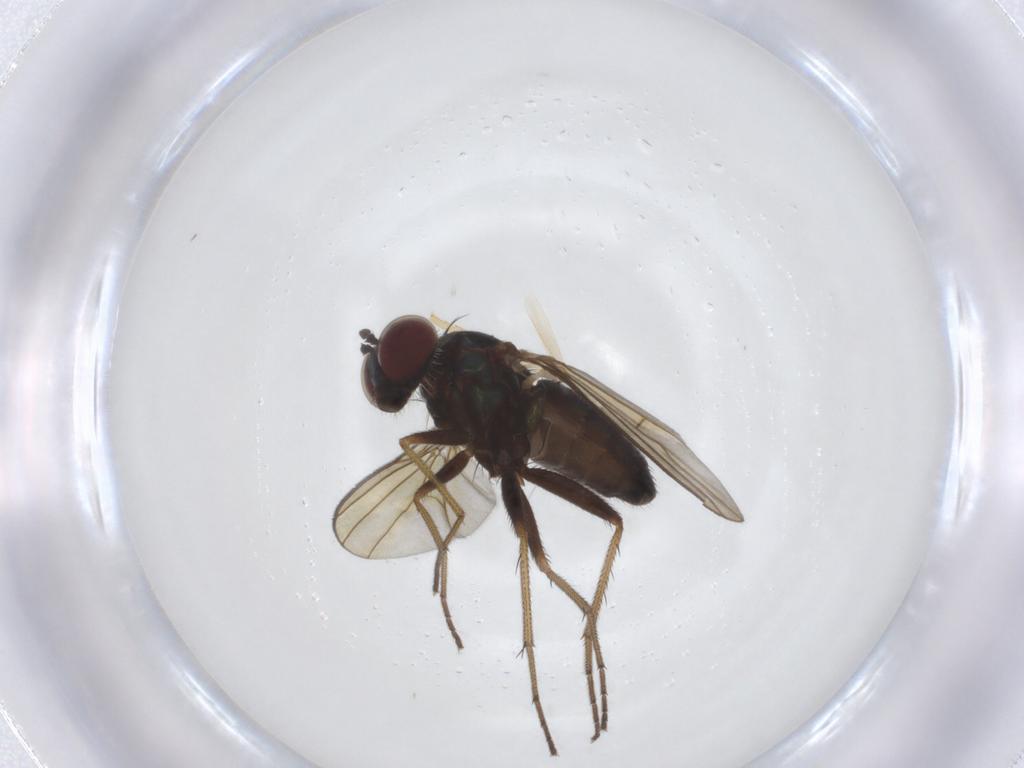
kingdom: Animalia
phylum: Arthropoda
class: Insecta
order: Diptera
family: Dolichopodidae
